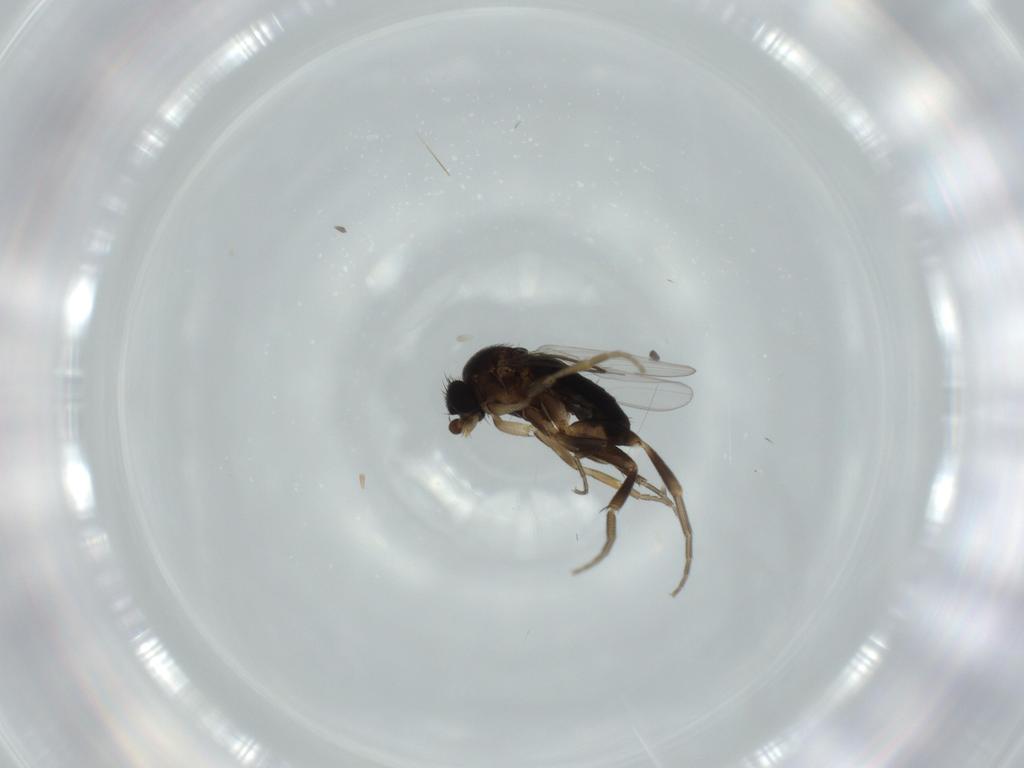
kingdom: Animalia
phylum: Arthropoda
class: Insecta
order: Diptera
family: Phoridae
